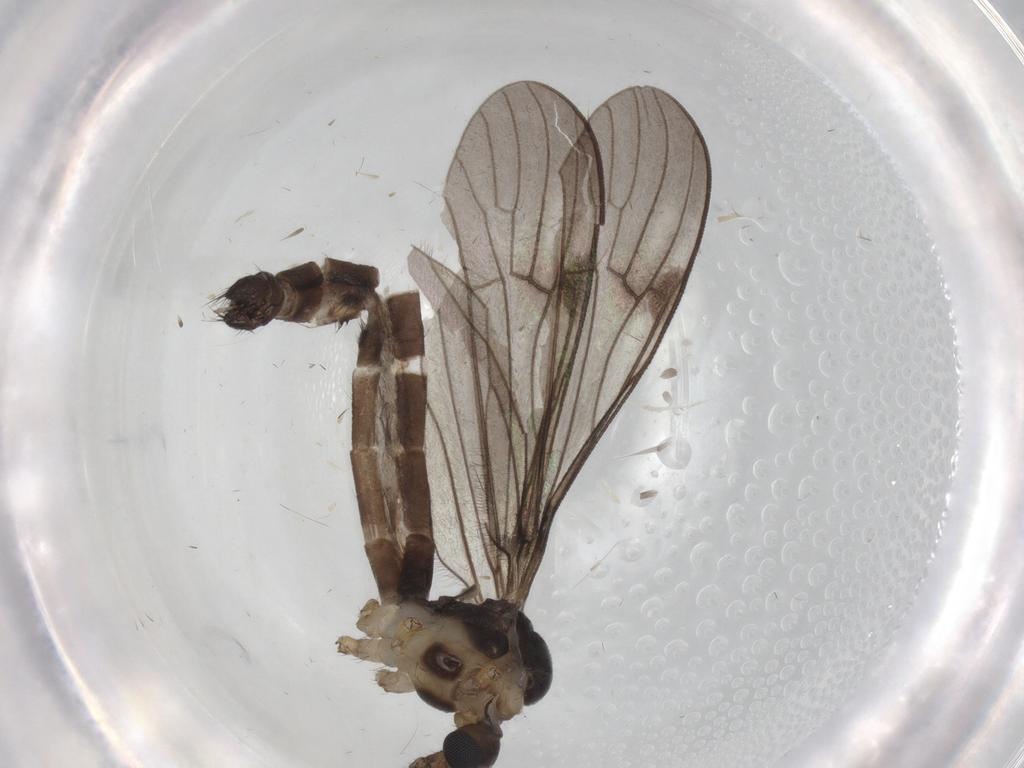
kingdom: Animalia
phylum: Arthropoda
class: Insecta
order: Diptera
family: Limoniidae
